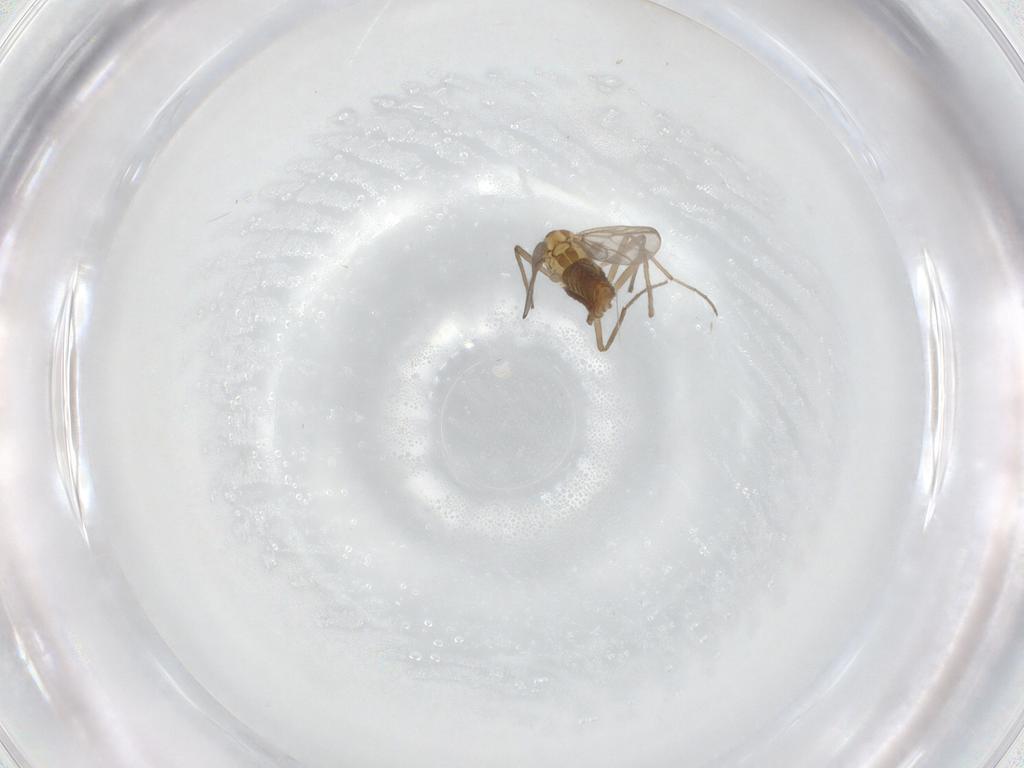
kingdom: Animalia
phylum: Arthropoda
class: Insecta
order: Diptera
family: Chironomidae
